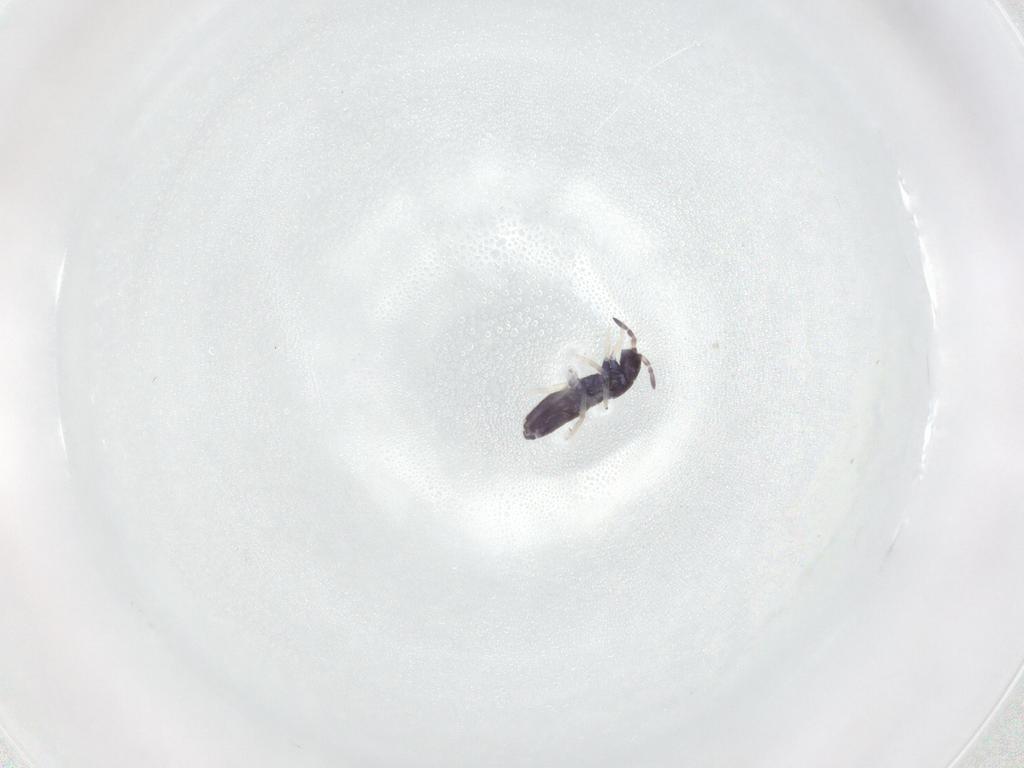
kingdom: Animalia
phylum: Arthropoda
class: Collembola
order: Entomobryomorpha
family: Entomobryidae
